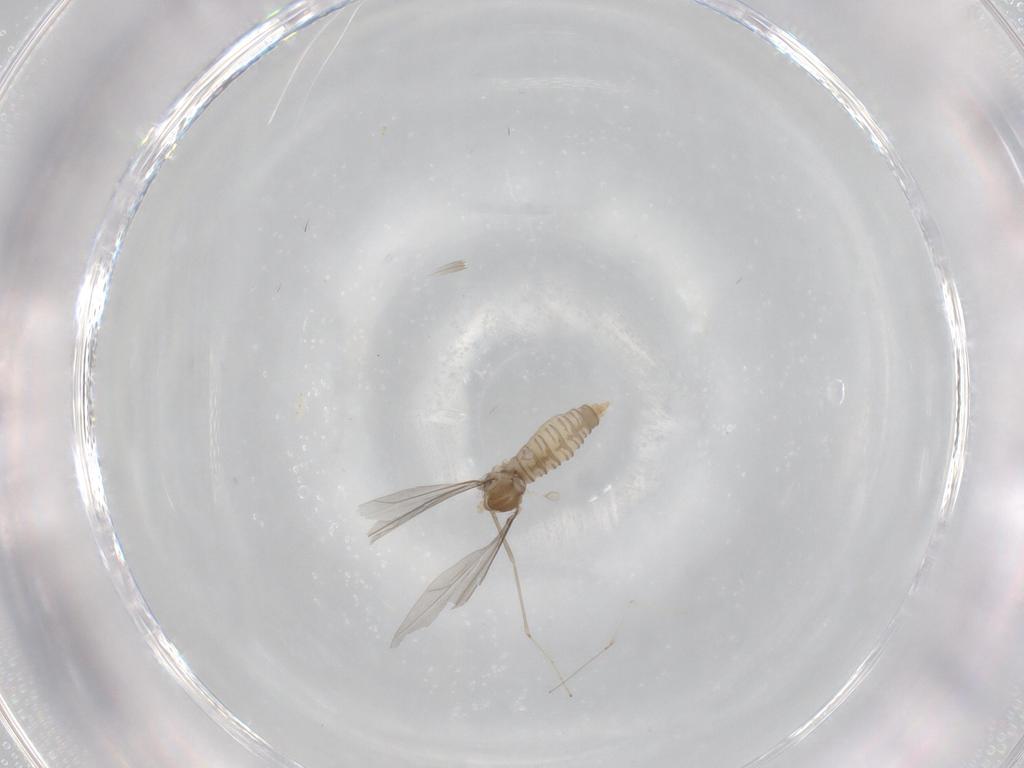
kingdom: Animalia
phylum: Arthropoda
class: Insecta
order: Diptera
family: Cecidomyiidae
